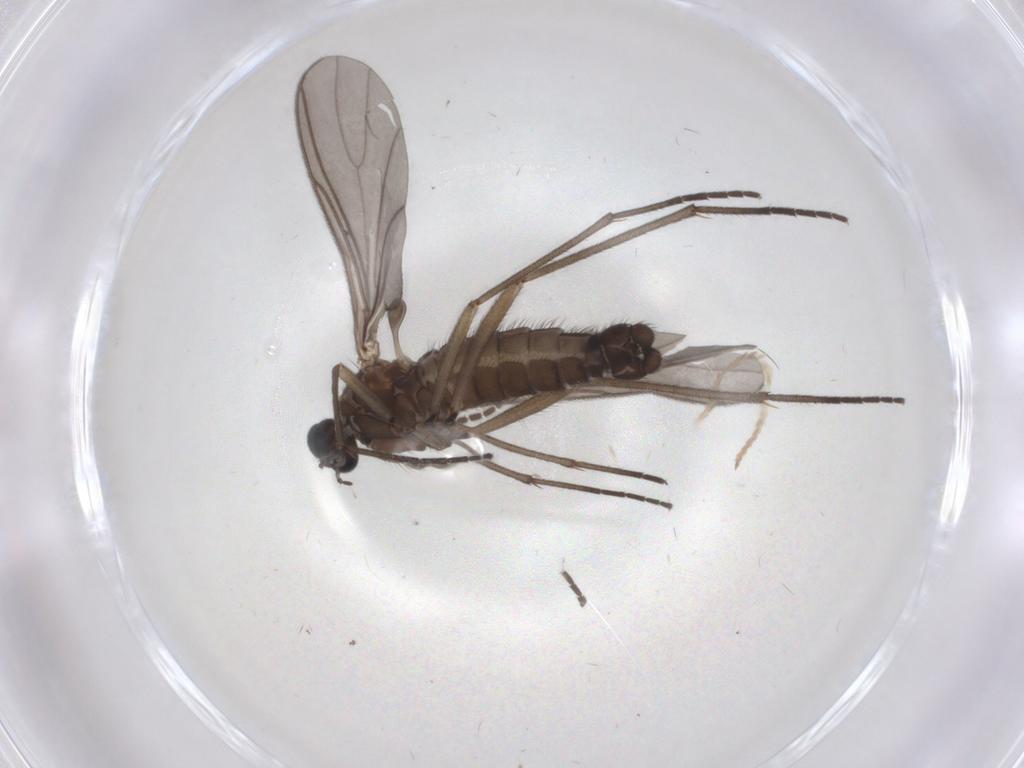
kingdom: Animalia
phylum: Arthropoda
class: Insecta
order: Diptera
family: Sciaridae
